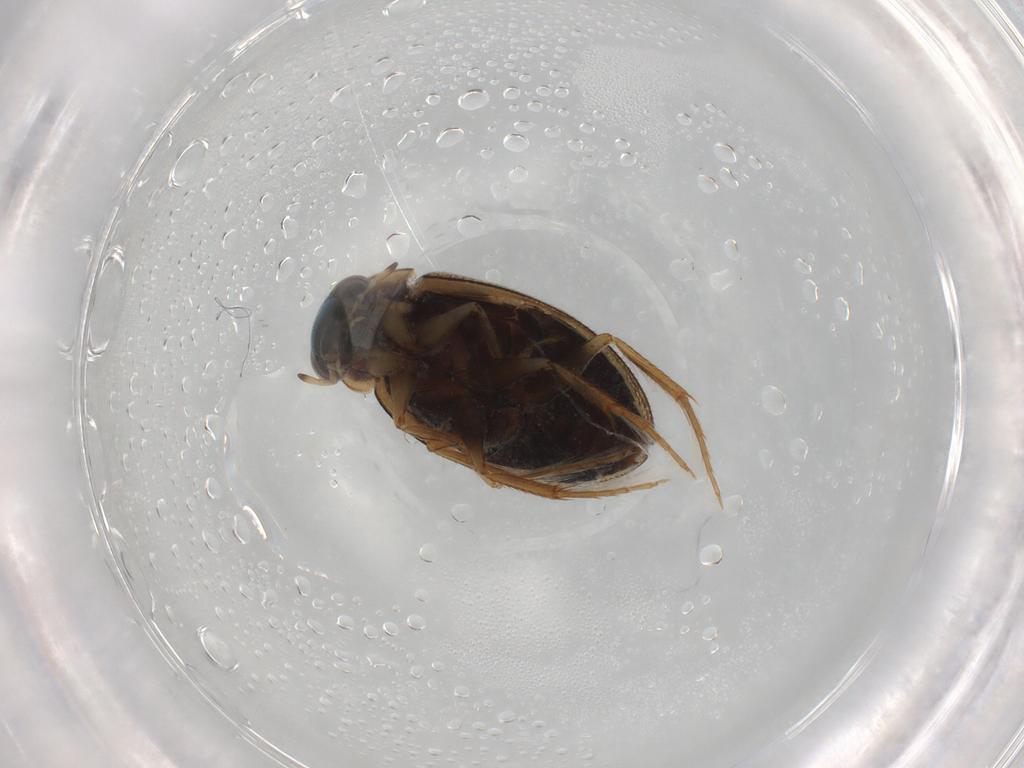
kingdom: Animalia
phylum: Arthropoda
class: Insecta
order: Coleoptera
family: Hydrophilidae
